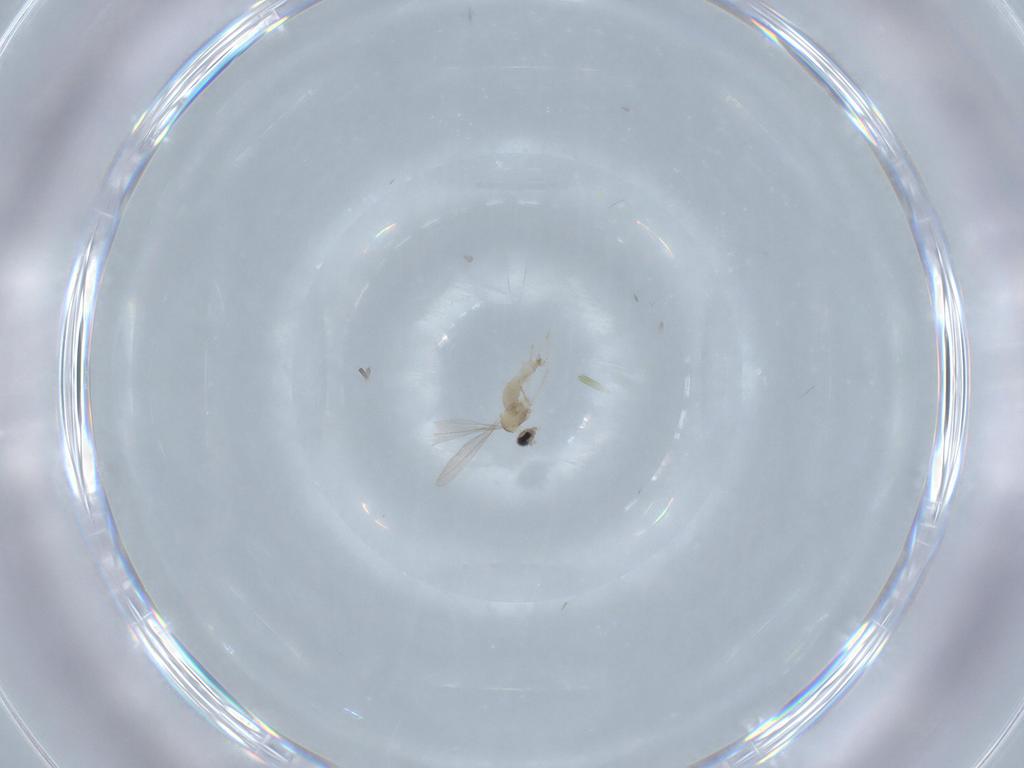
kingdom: Animalia
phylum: Arthropoda
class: Insecta
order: Diptera
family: Cecidomyiidae
